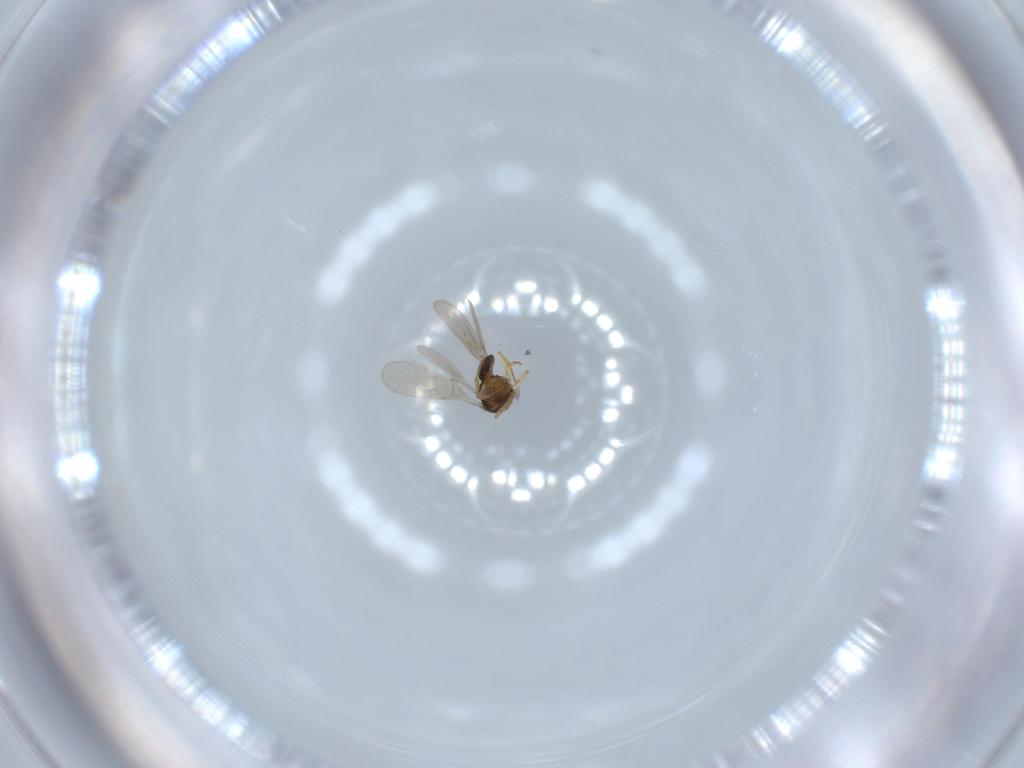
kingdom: Animalia
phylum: Arthropoda
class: Insecta
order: Hymenoptera
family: Scelionidae
